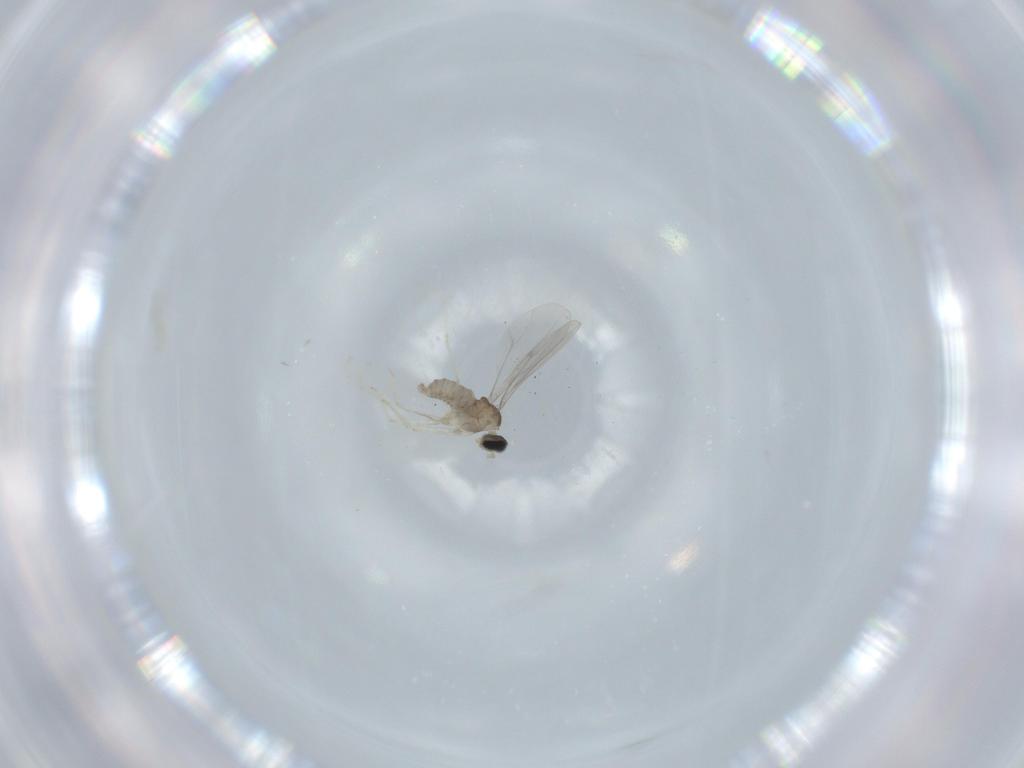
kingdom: Animalia
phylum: Arthropoda
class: Insecta
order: Diptera
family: Cecidomyiidae
